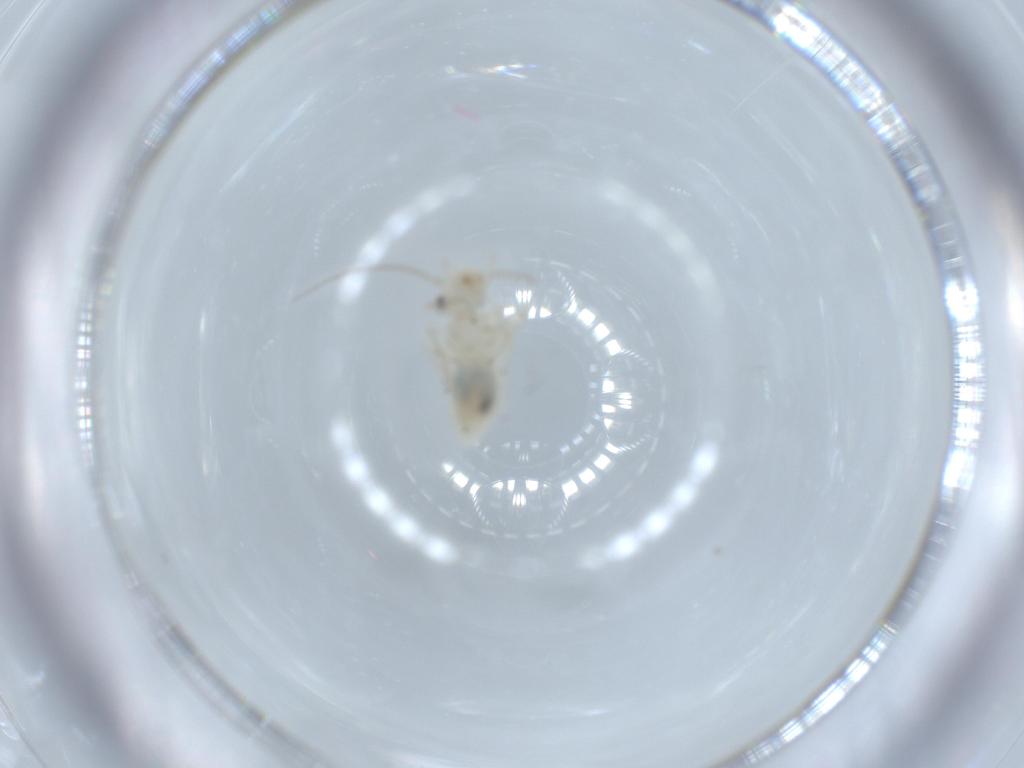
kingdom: Animalia
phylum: Arthropoda
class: Insecta
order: Psocodea
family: Caeciliusidae
